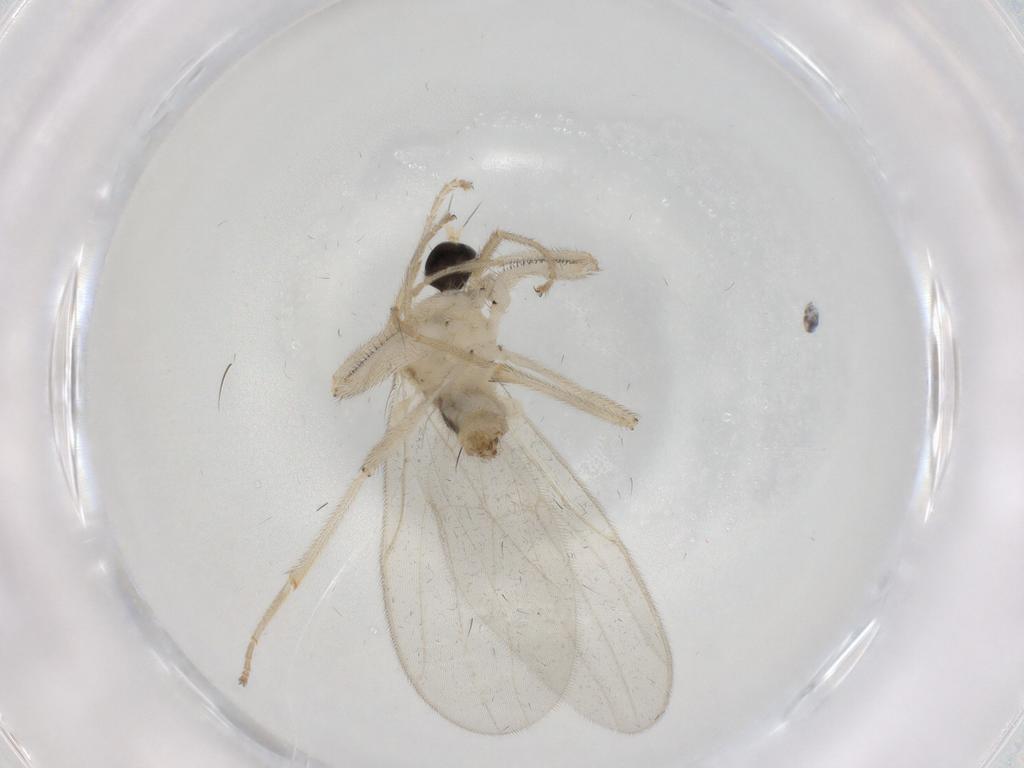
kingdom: Animalia
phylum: Arthropoda
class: Insecta
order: Diptera
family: Hybotidae
